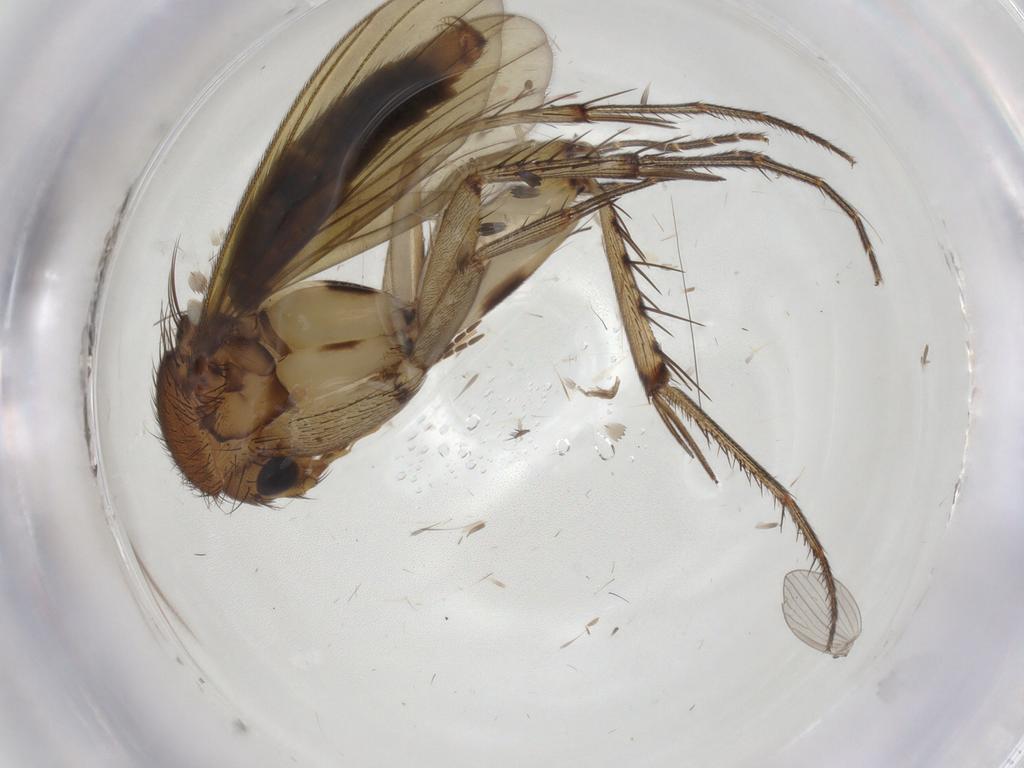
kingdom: Animalia
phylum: Arthropoda
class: Insecta
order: Diptera
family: Psychodidae
